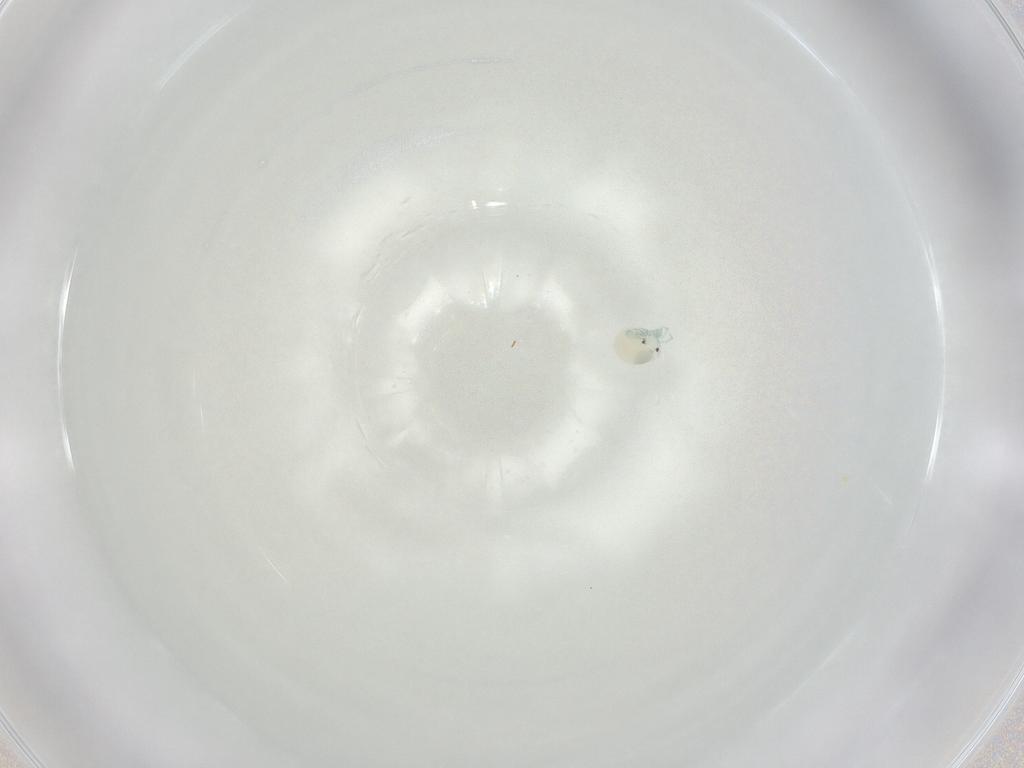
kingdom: Animalia
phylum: Arthropoda
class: Arachnida
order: Trombidiformes
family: Arrenuridae
